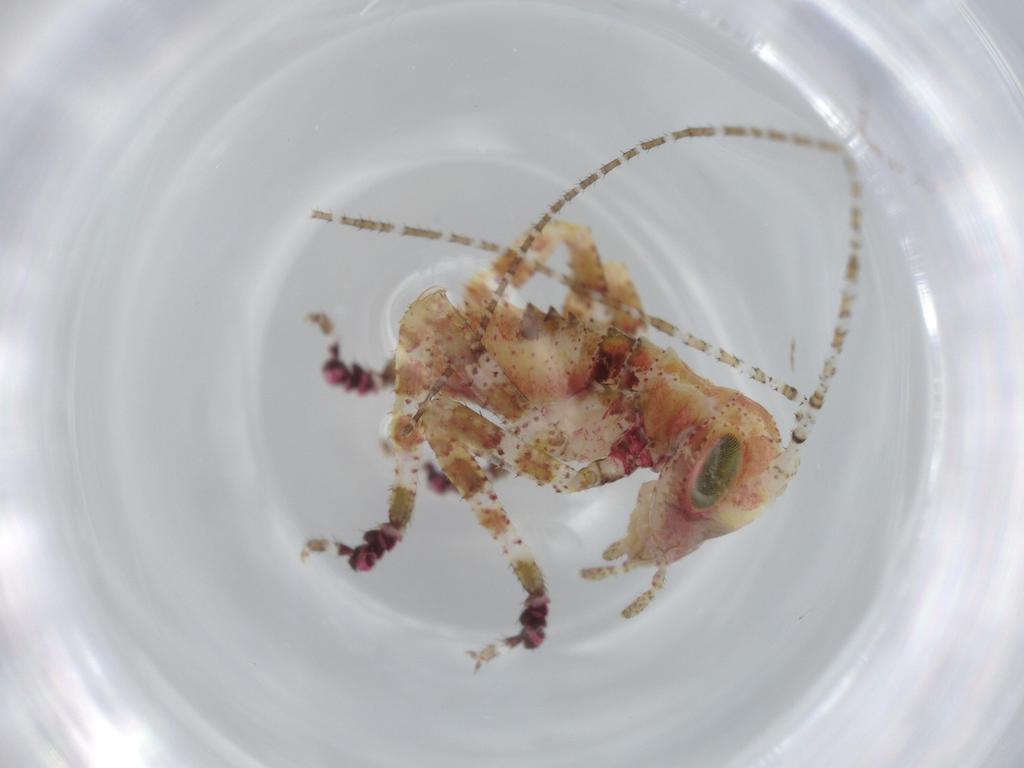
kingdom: Animalia
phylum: Arthropoda
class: Insecta
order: Orthoptera
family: Tettigoniidae
